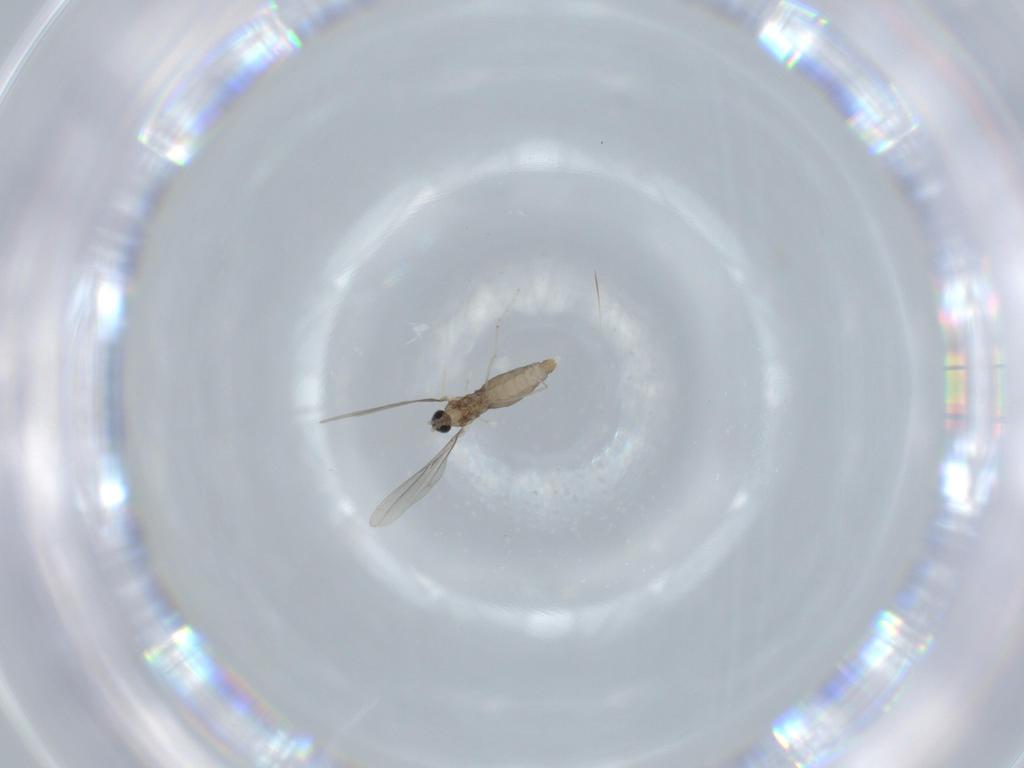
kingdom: Animalia
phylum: Arthropoda
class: Insecta
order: Diptera
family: Cecidomyiidae
